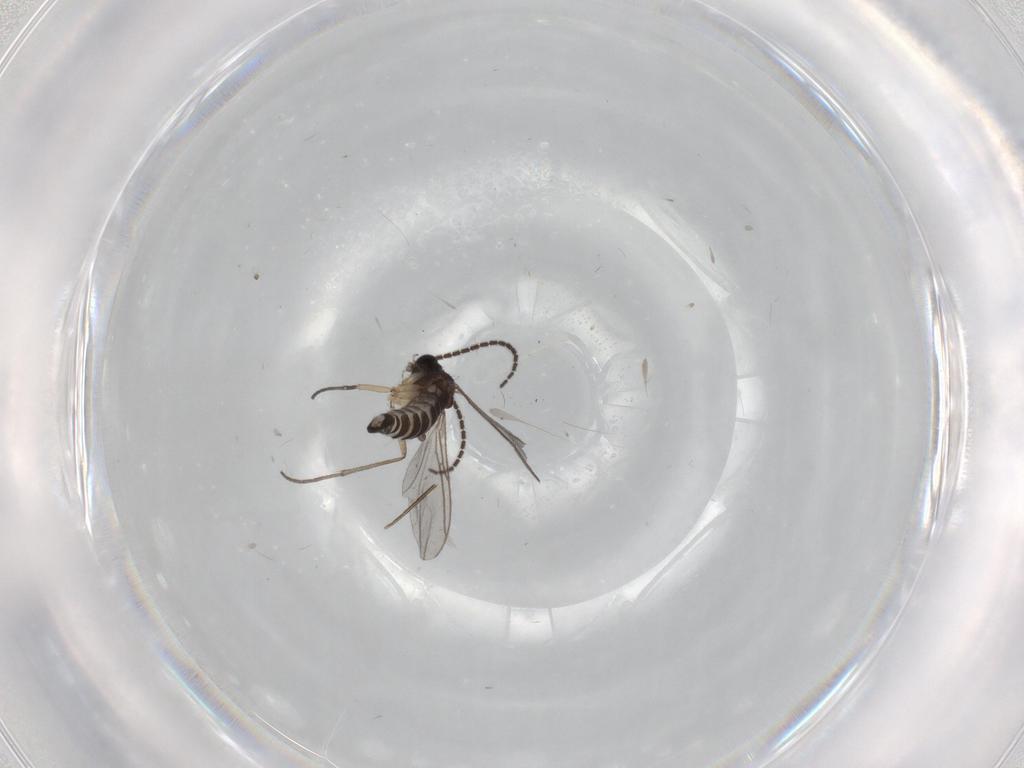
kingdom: Animalia
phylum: Arthropoda
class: Insecta
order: Diptera
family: Sciaridae
